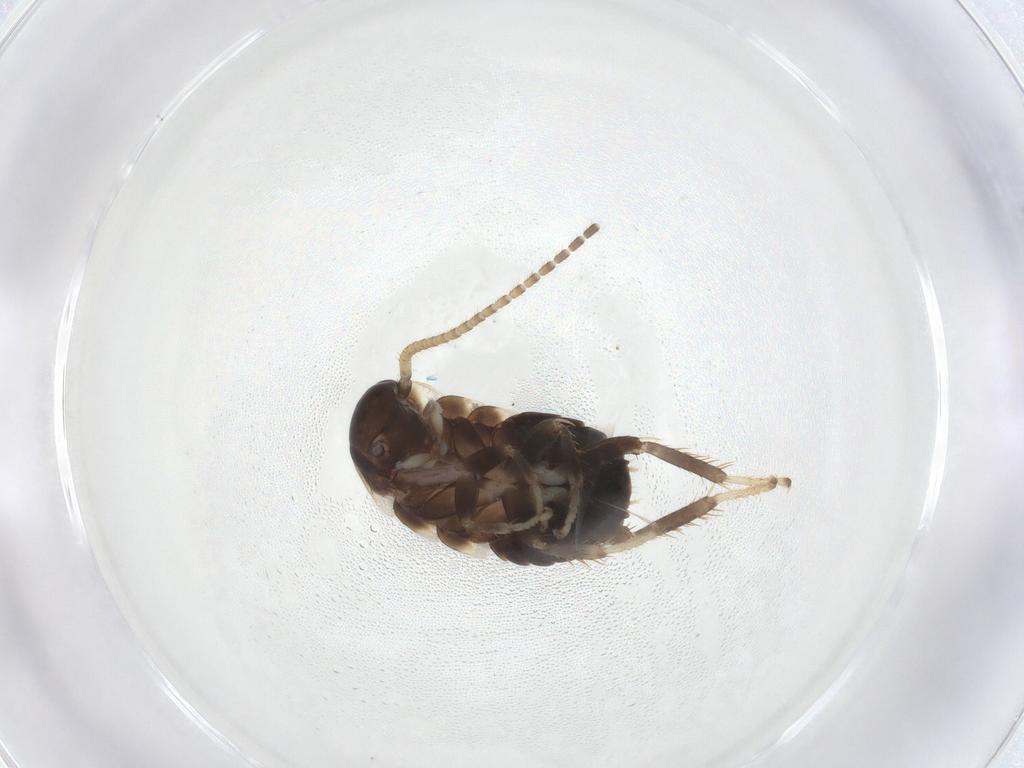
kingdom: Animalia
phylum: Arthropoda
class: Insecta
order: Blattodea
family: Blaberidae
